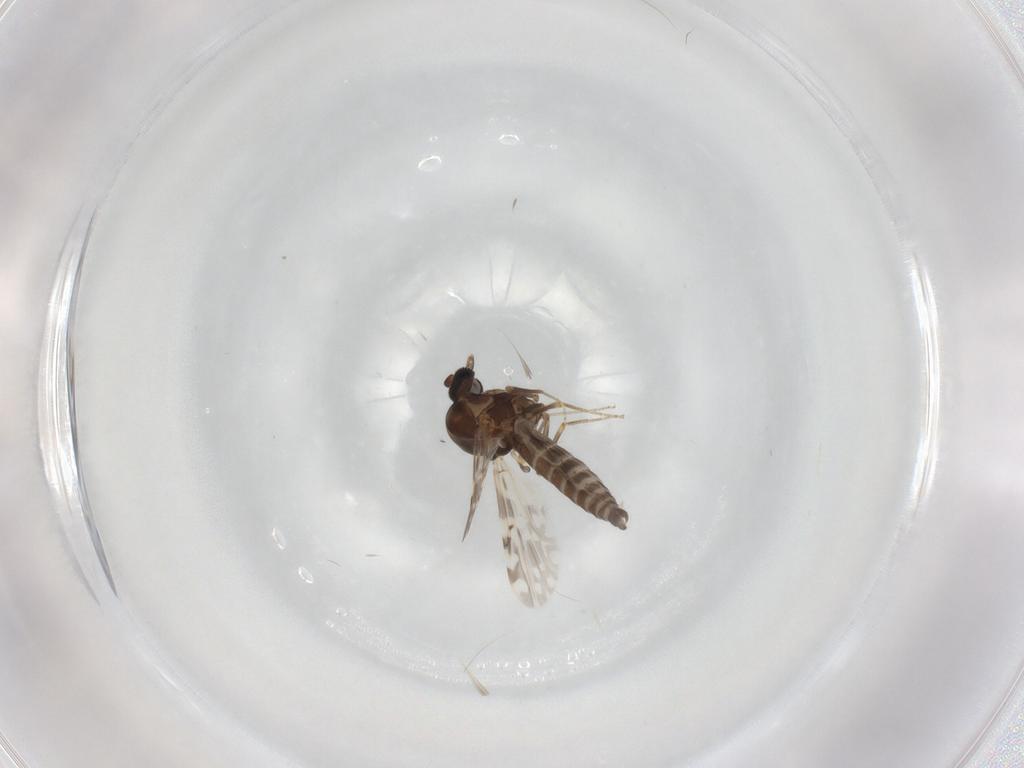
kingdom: Animalia
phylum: Arthropoda
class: Insecta
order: Diptera
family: Ceratopogonidae
